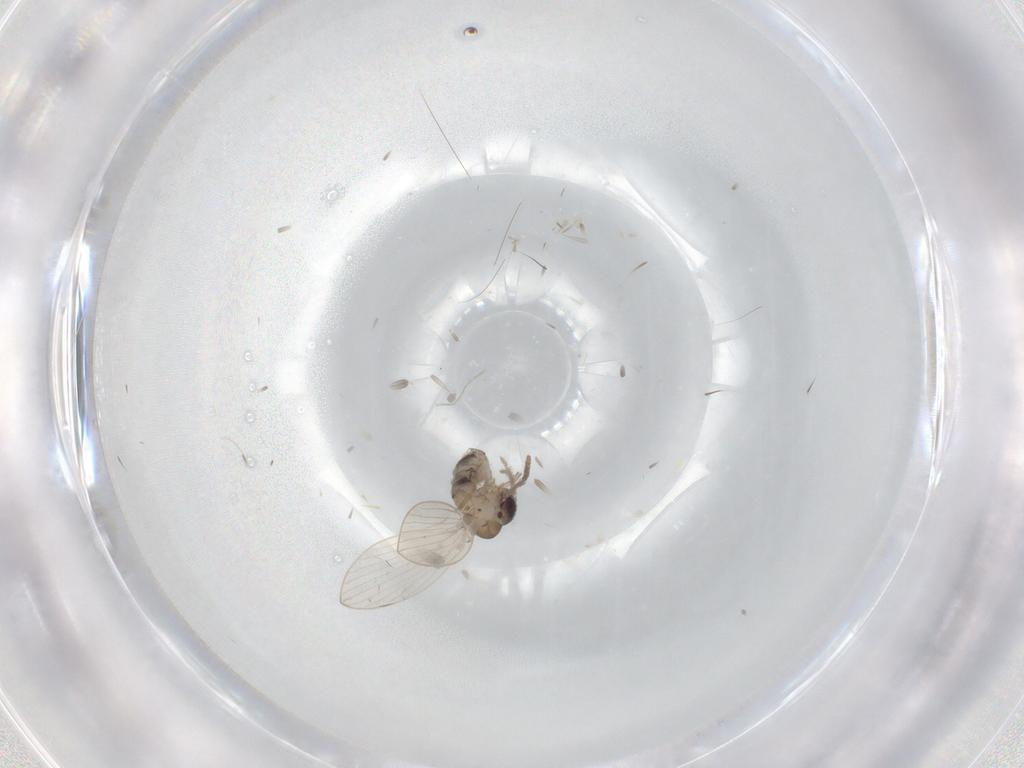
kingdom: Animalia
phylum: Arthropoda
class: Insecta
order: Diptera
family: Psychodidae
